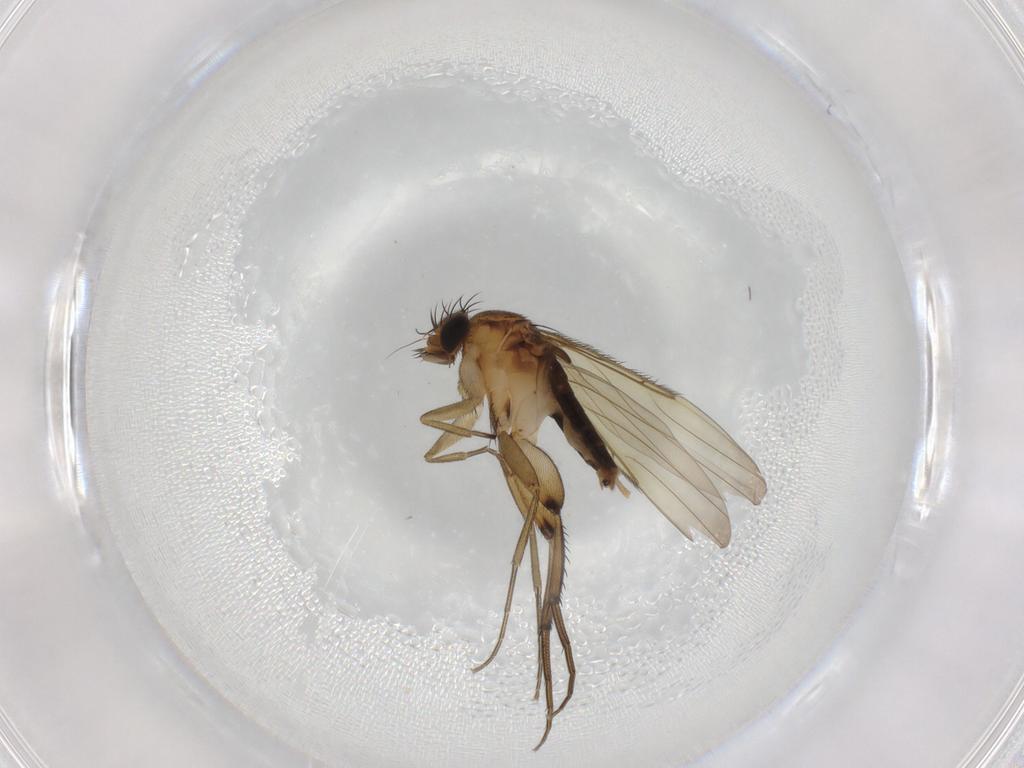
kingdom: Animalia
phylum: Arthropoda
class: Insecta
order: Diptera
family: Phoridae
